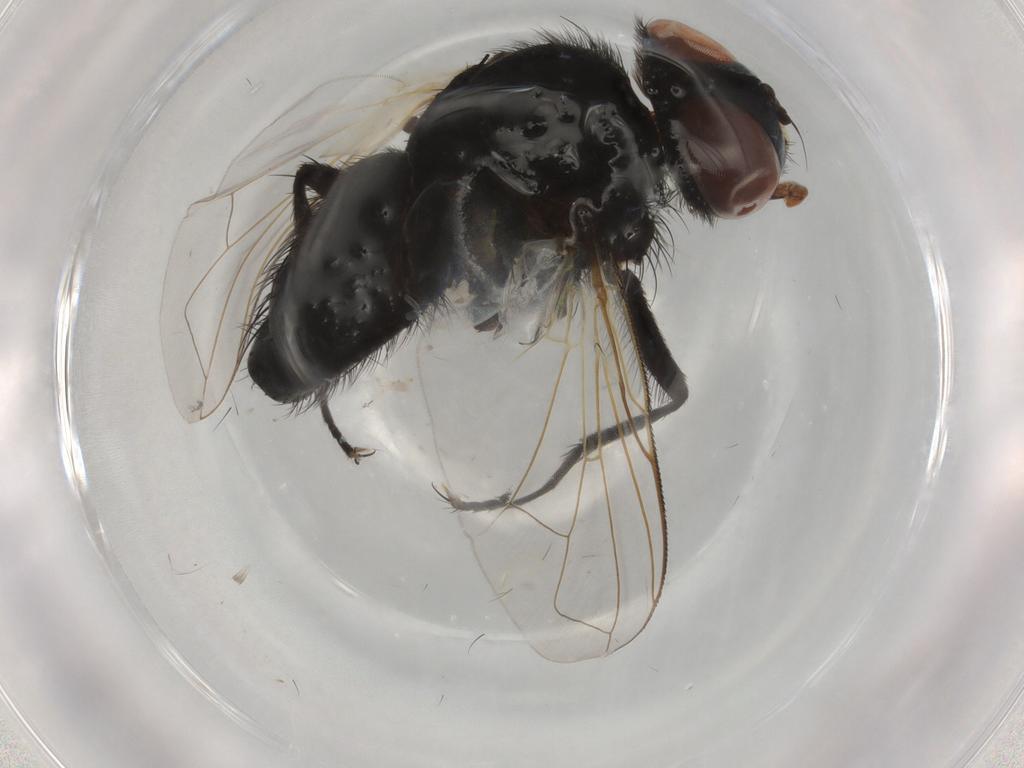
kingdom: Animalia
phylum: Arthropoda
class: Insecta
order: Diptera
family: Tachinidae
